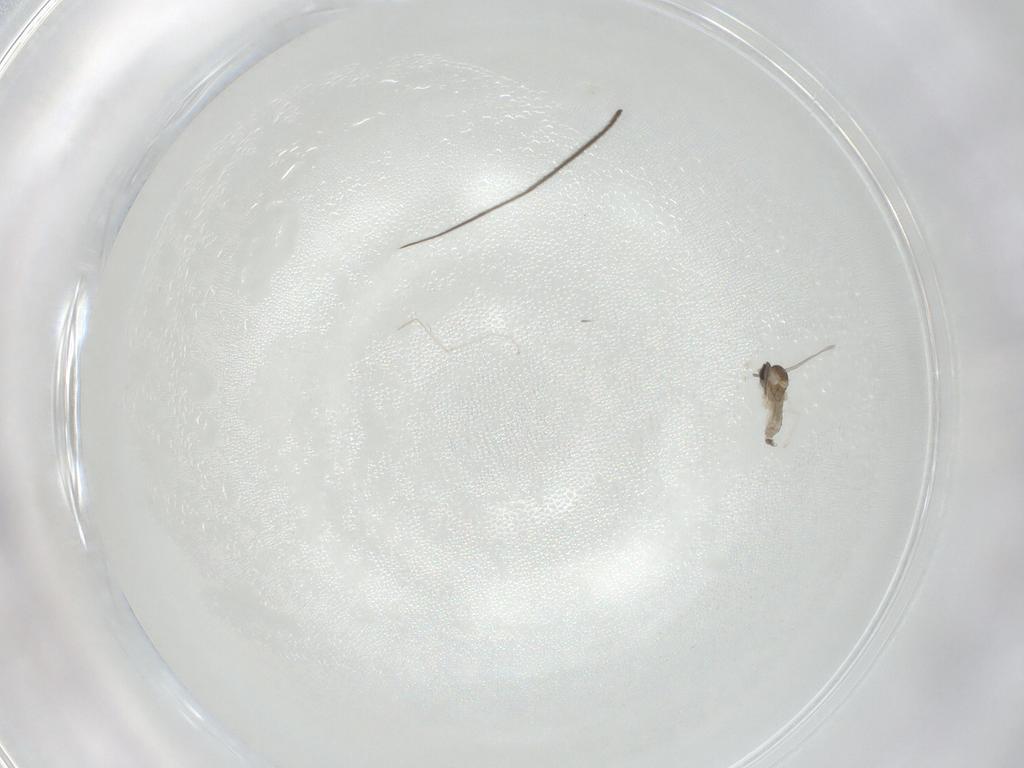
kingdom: Animalia
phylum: Arthropoda
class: Insecta
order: Diptera
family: Cecidomyiidae
